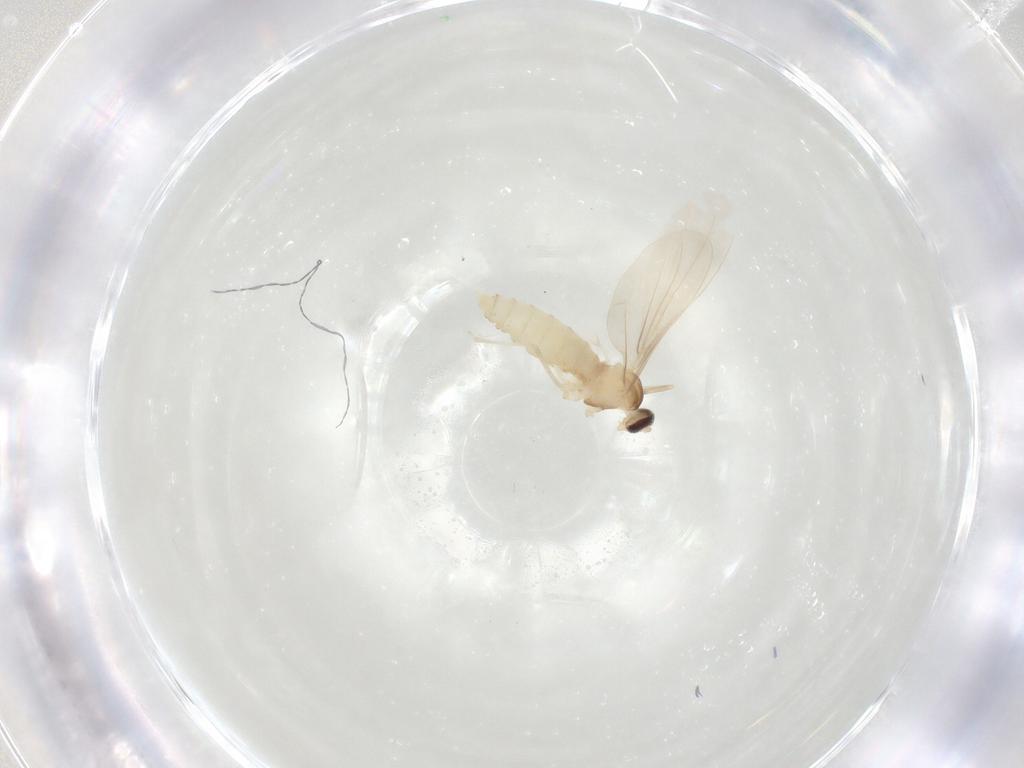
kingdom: Animalia
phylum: Arthropoda
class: Insecta
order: Diptera
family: Cecidomyiidae
